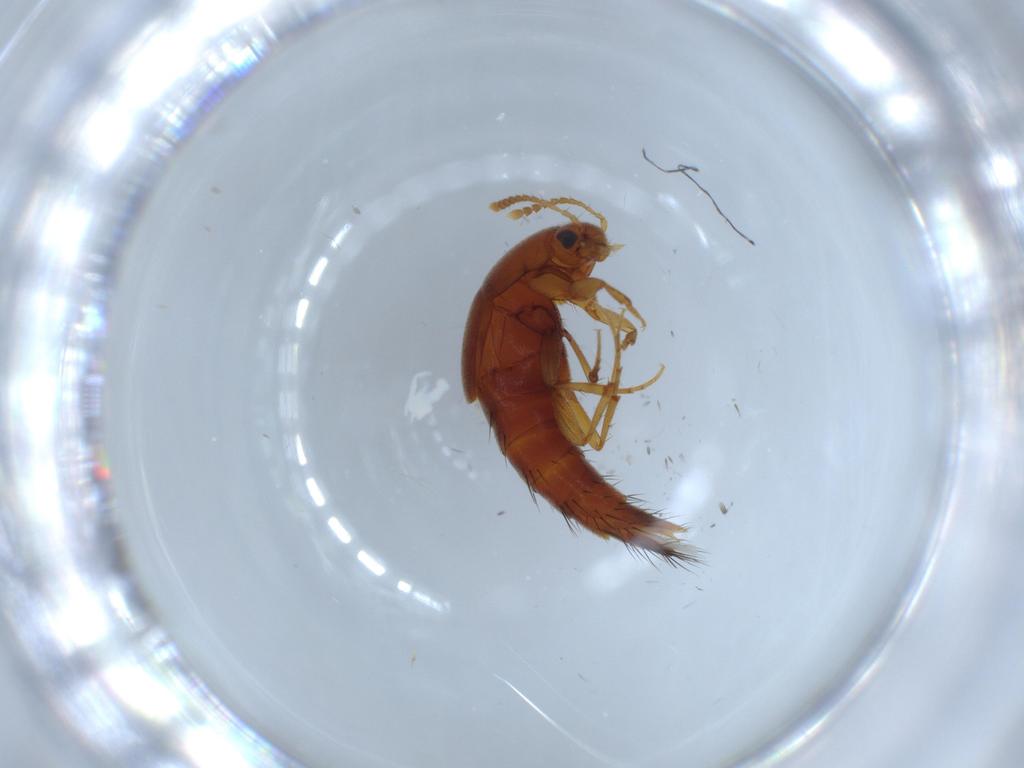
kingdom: Animalia
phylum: Arthropoda
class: Insecta
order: Coleoptera
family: Staphylinidae
